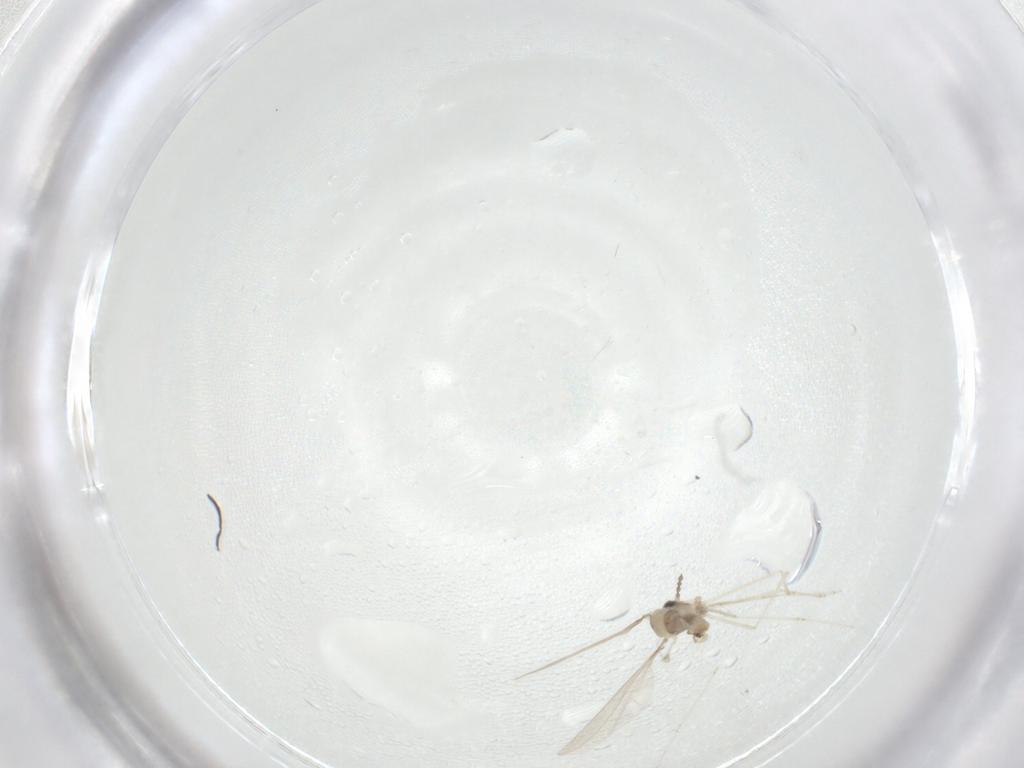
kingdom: Animalia
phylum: Arthropoda
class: Insecta
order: Diptera
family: Cecidomyiidae
